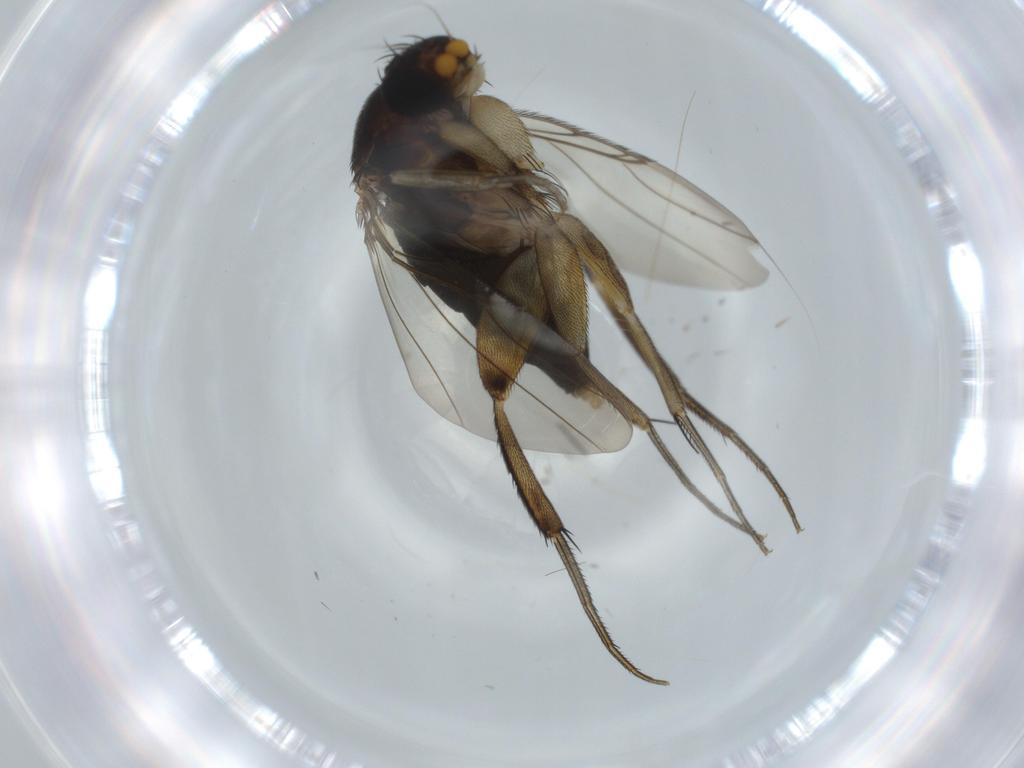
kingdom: Animalia
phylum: Arthropoda
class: Insecta
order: Diptera
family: Phoridae
